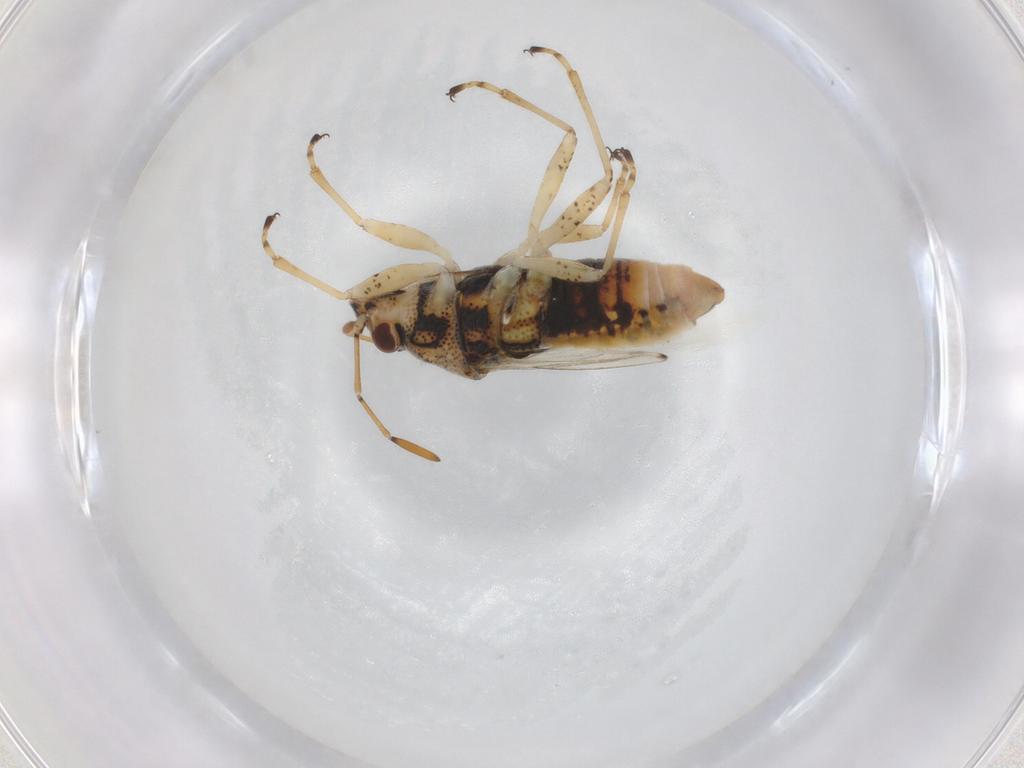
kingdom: Animalia
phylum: Arthropoda
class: Insecta
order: Hemiptera
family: Lygaeidae
